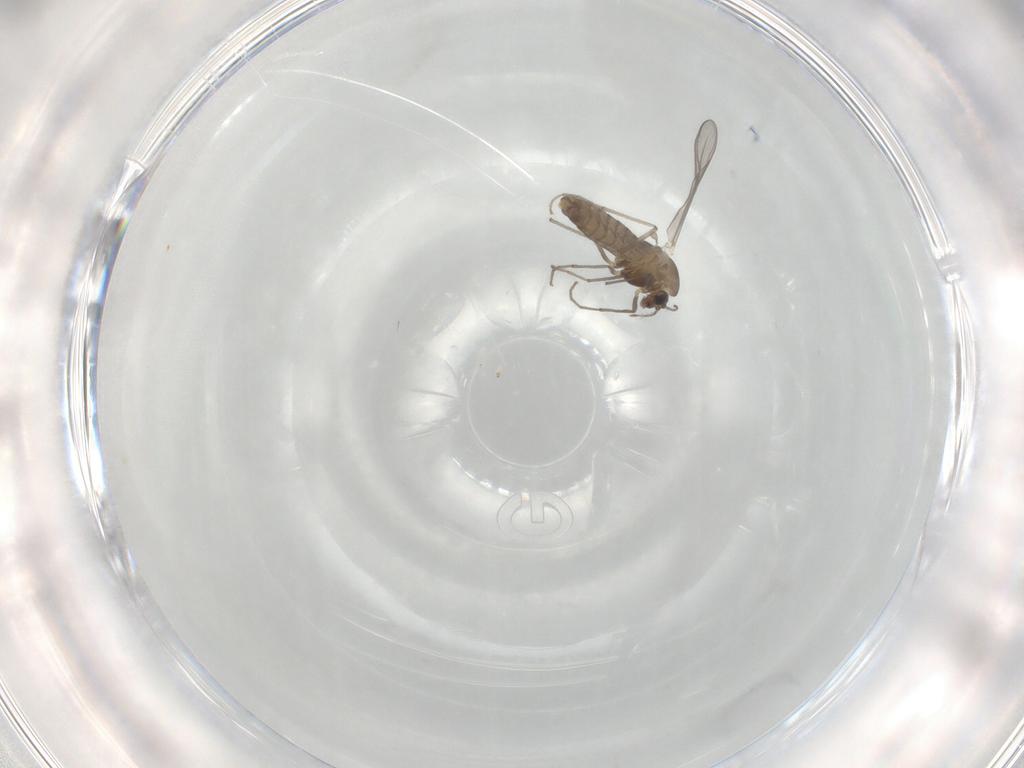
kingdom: Animalia
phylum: Arthropoda
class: Insecta
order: Diptera
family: Chironomidae
